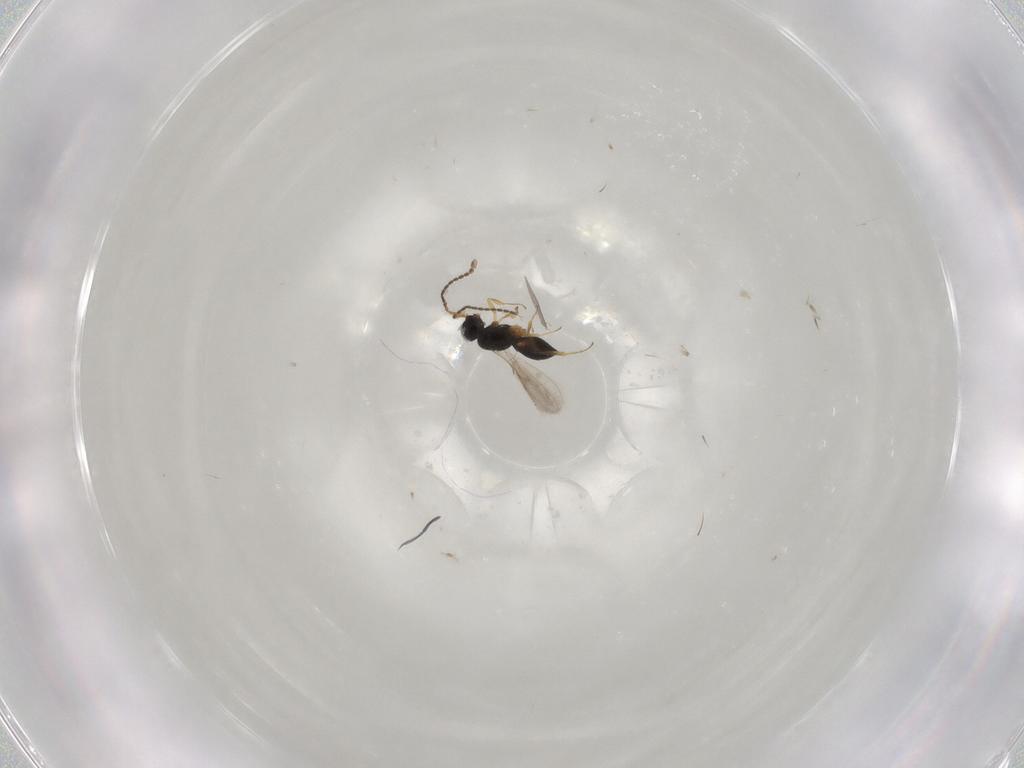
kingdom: Animalia
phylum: Arthropoda
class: Insecta
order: Hymenoptera
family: Scelionidae
